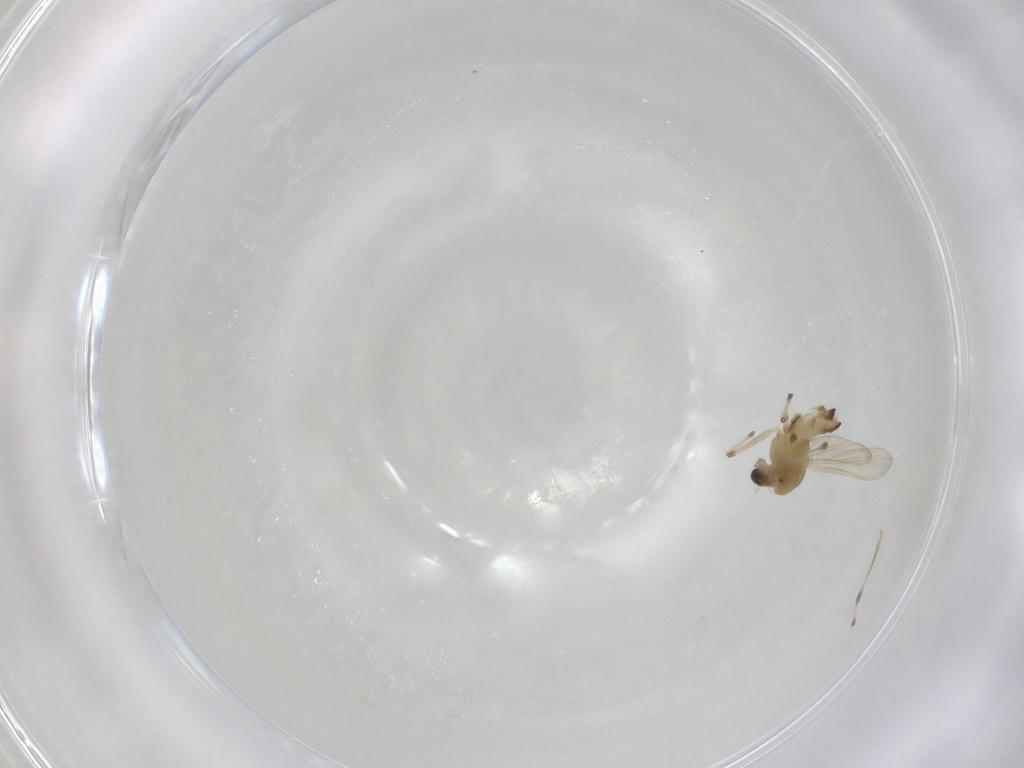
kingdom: Animalia
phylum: Arthropoda
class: Insecta
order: Diptera
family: Chironomidae
